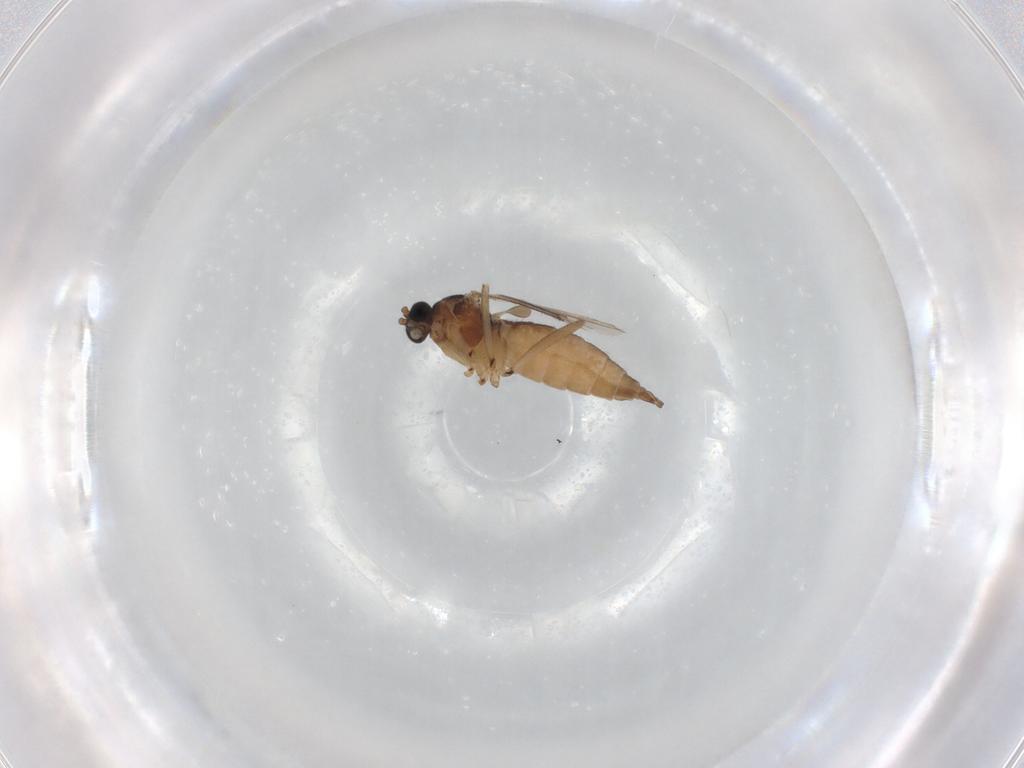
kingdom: Animalia
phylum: Arthropoda
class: Insecta
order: Diptera
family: Sciaridae
